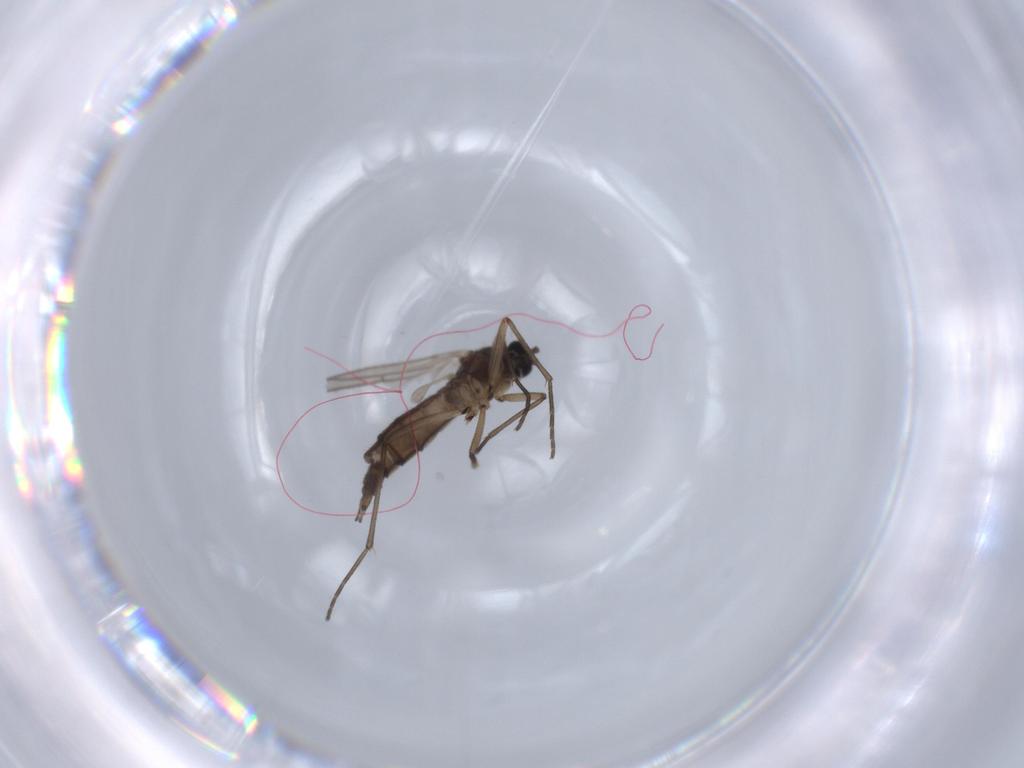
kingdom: Animalia
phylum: Arthropoda
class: Insecta
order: Diptera
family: Sciaridae
